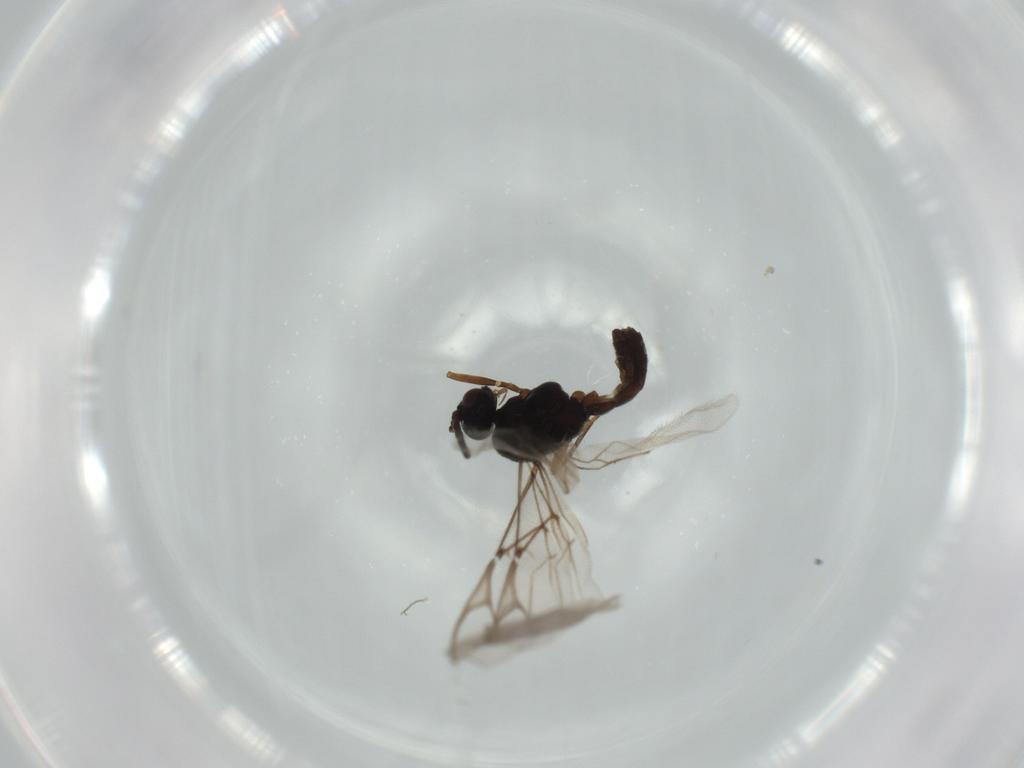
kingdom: Animalia
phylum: Arthropoda
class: Insecta
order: Hymenoptera
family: Braconidae
